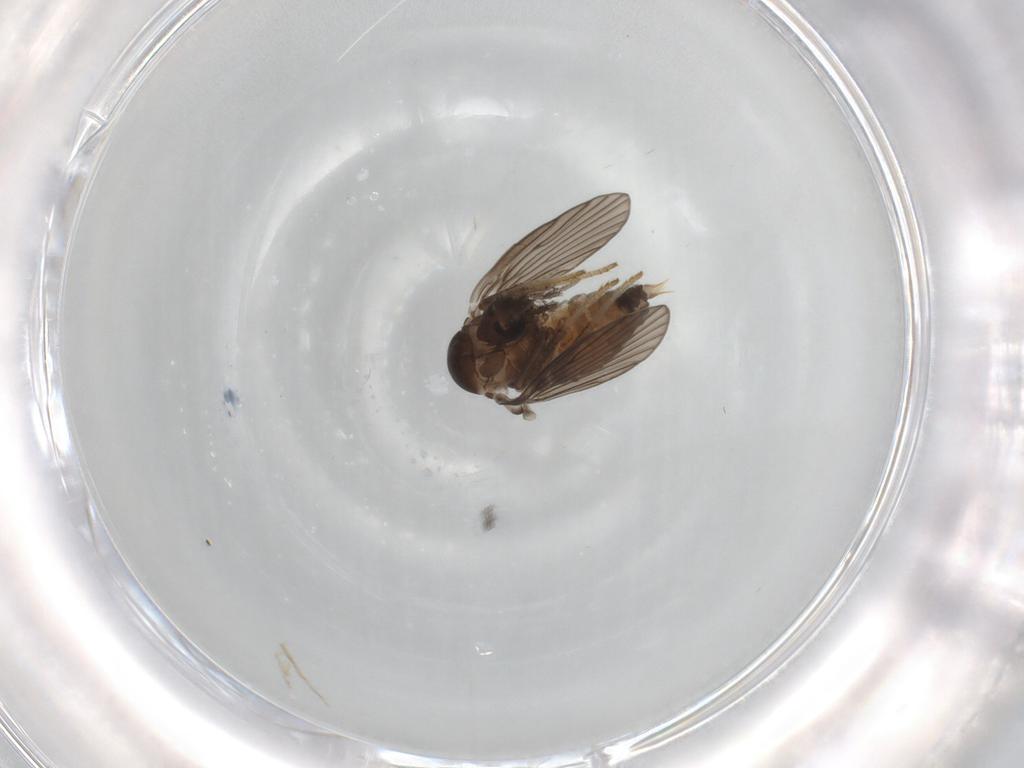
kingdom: Animalia
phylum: Arthropoda
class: Insecta
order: Diptera
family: Psychodidae
